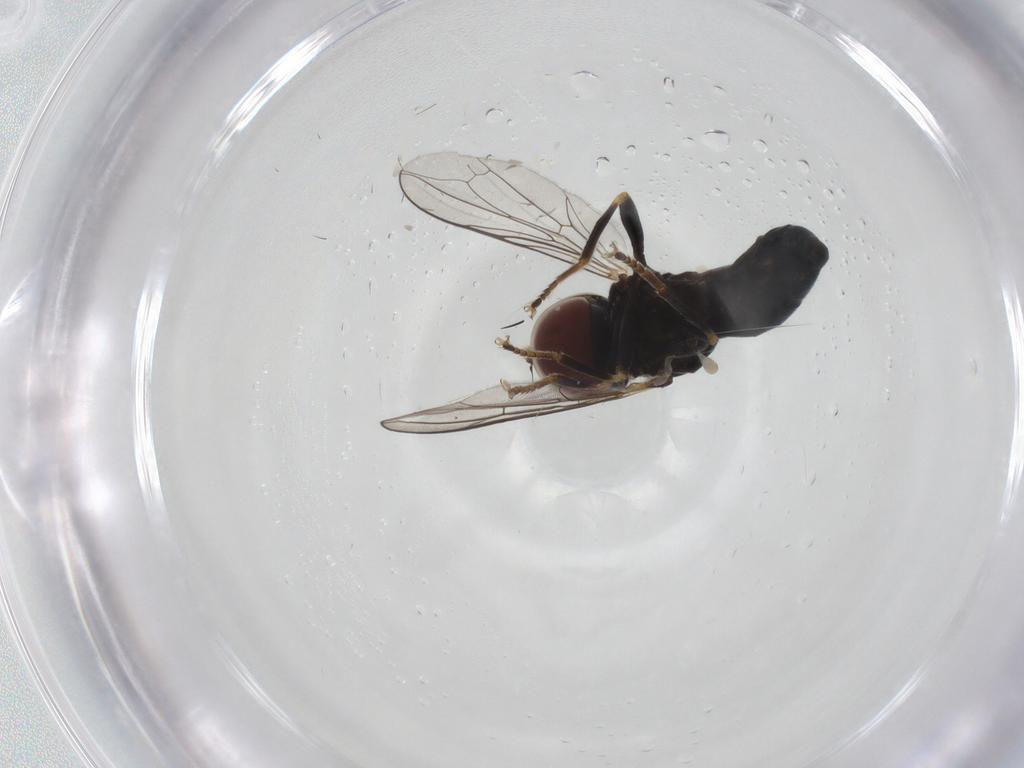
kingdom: Animalia
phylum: Arthropoda
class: Insecta
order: Diptera
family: Pipunculidae
